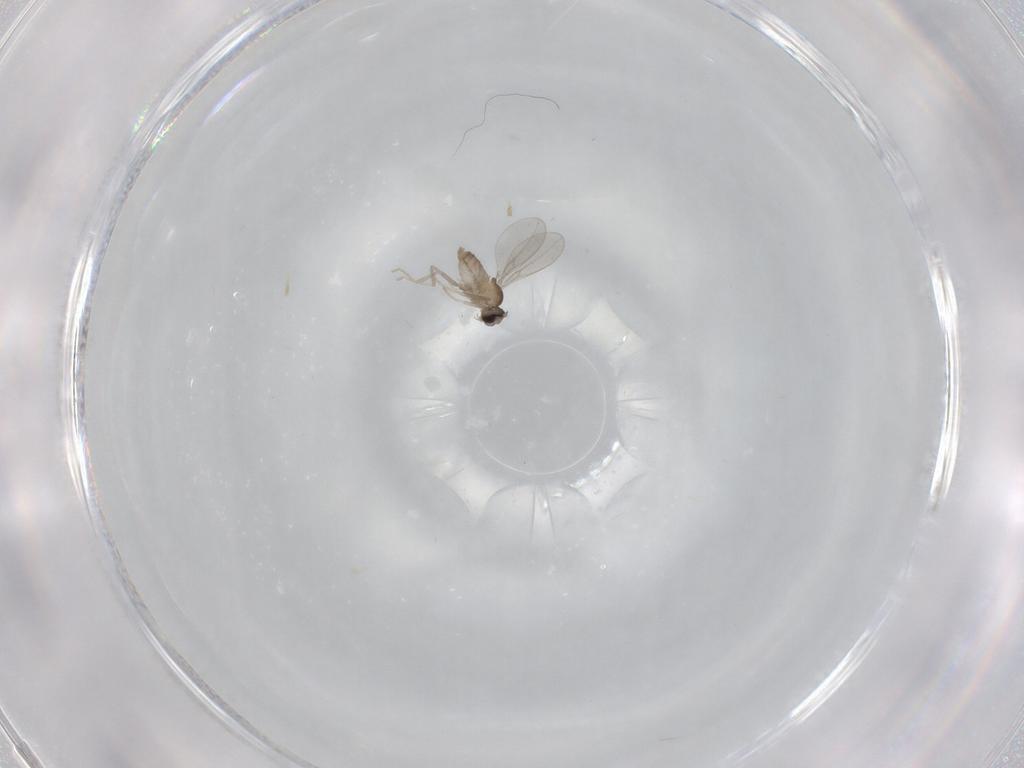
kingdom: Animalia
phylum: Arthropoda
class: Insecta
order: Diptera
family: Cecidomyiidae
